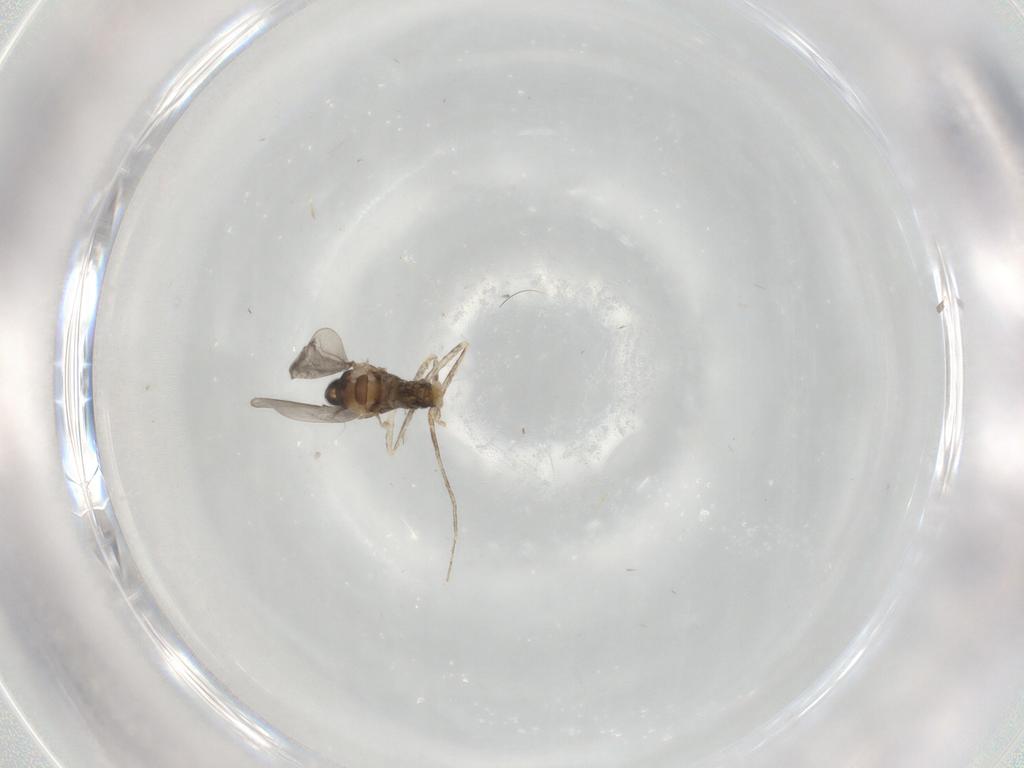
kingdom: Animalia
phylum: Arthropoda
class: Insecta
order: Diptera
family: Cecidomyiidae
